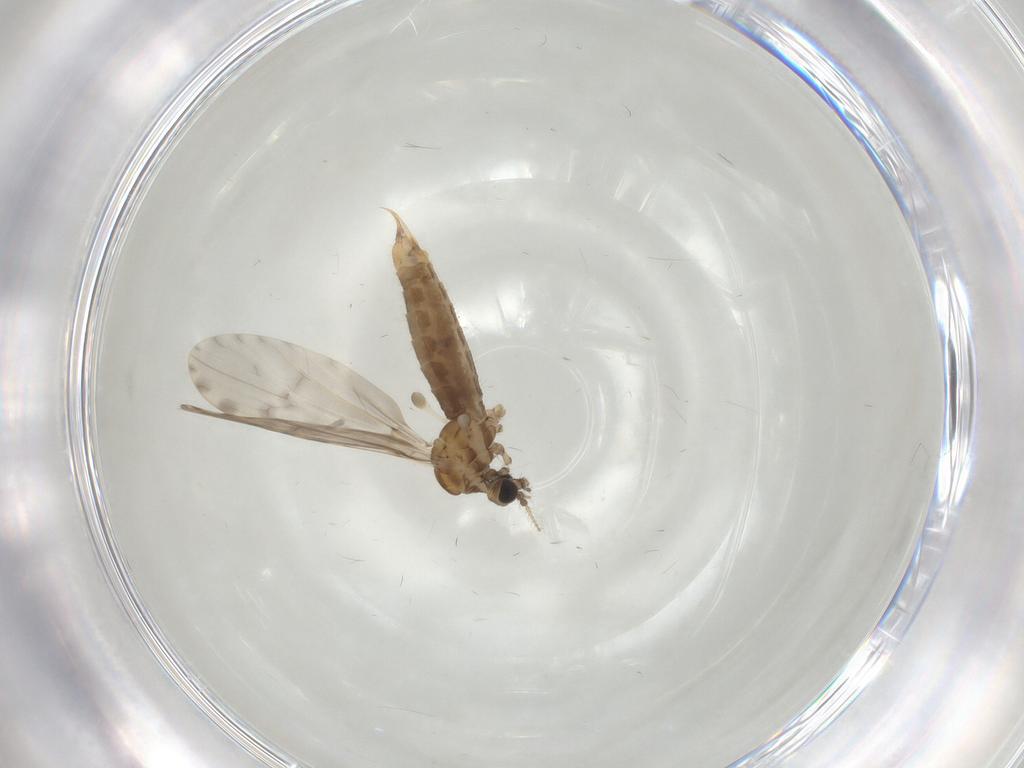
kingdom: Animalia
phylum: Arthropoda
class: Insecta
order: Diptera
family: Limoniidae
